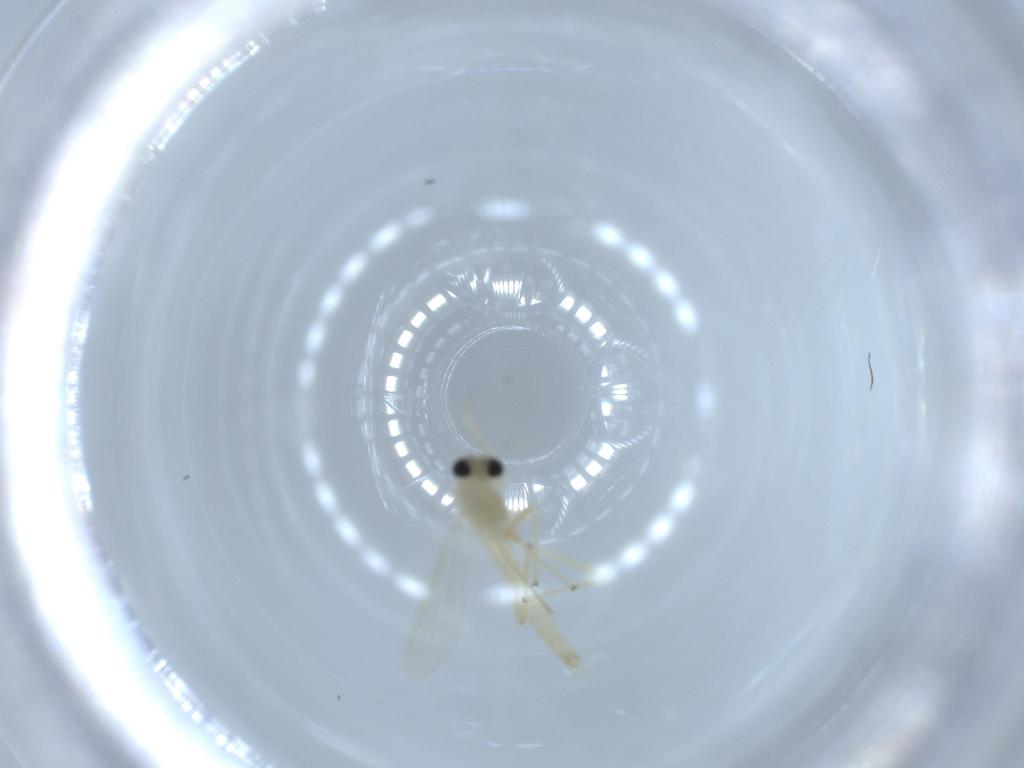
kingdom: Animalia
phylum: Arthropoda
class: Insecta
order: Diptera
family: Chironomidae
